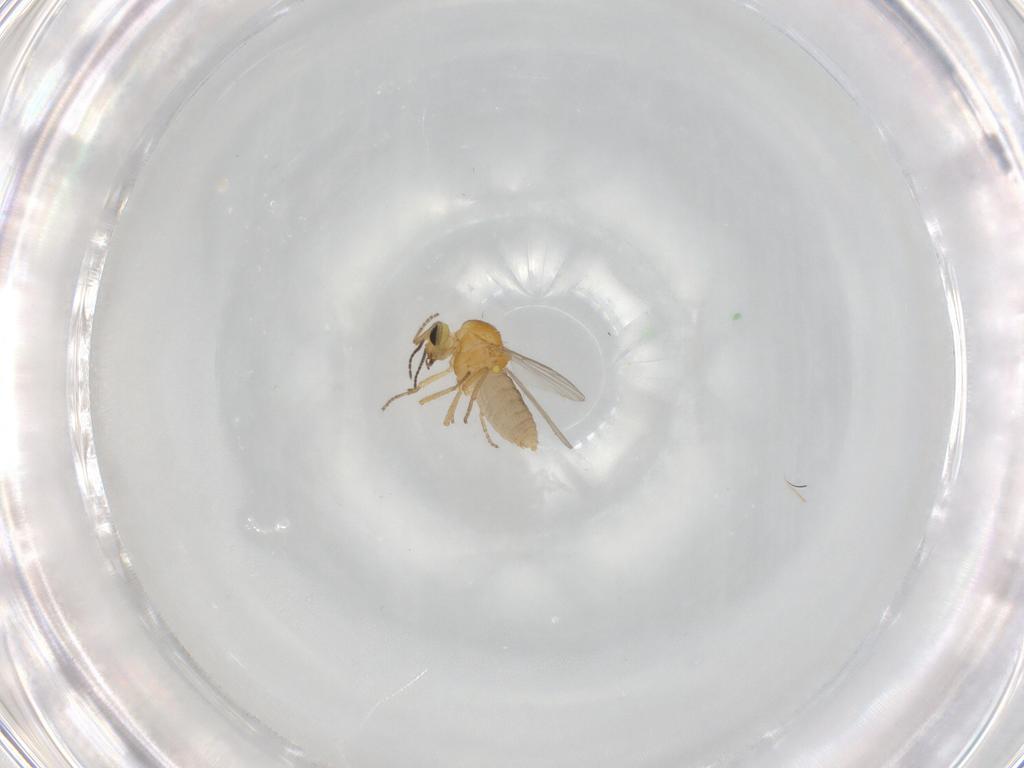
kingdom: Animalia
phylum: Arthropoda
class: Insecta
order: Diptera
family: Ceratopogonidae
